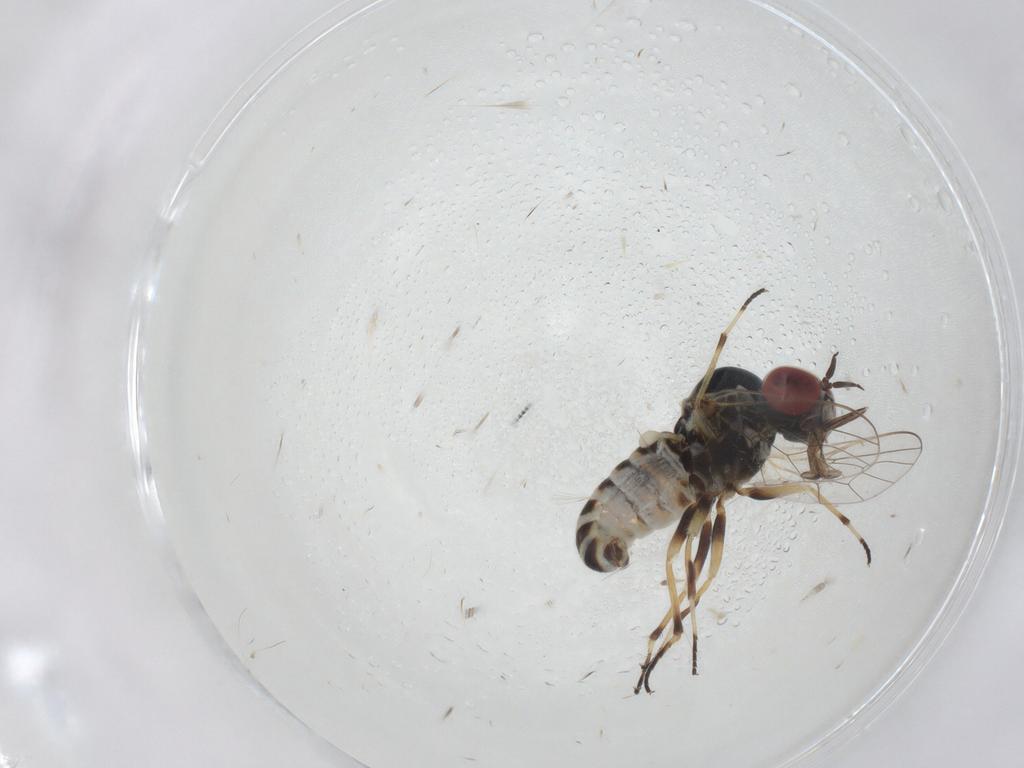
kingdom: Animalia
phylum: Arthropoda
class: Insecta
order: Diptera
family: Mythicomyiidae
